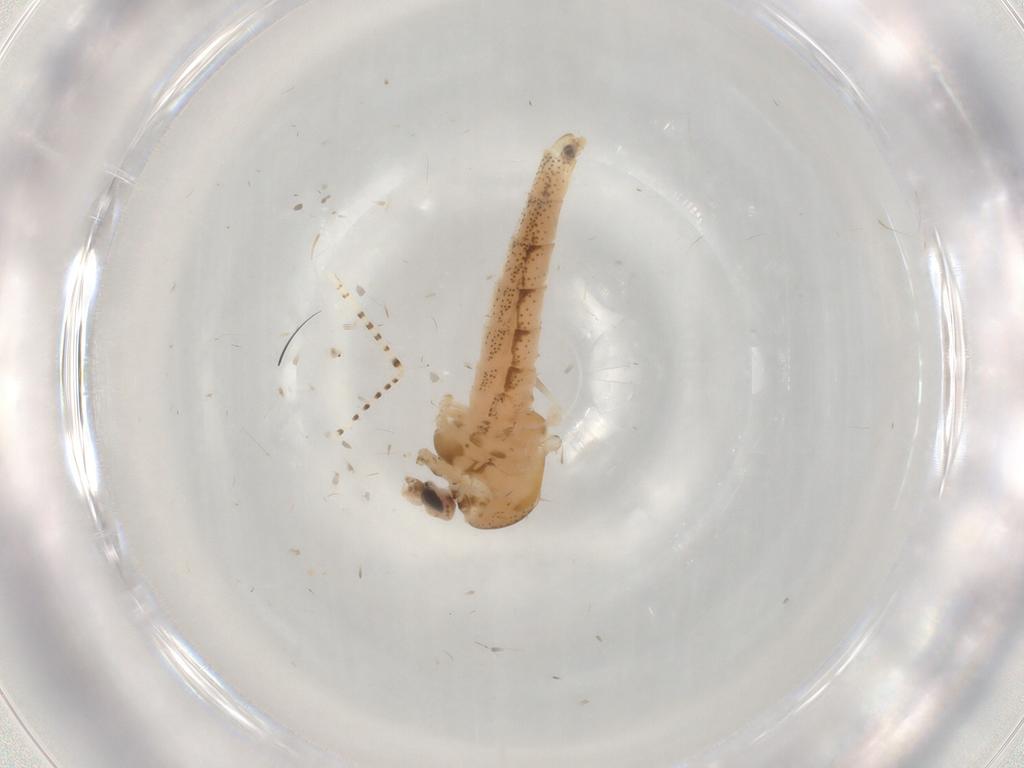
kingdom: Animalia
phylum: Arthropoda
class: Insecta
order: Diptera
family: Chaoboridae
